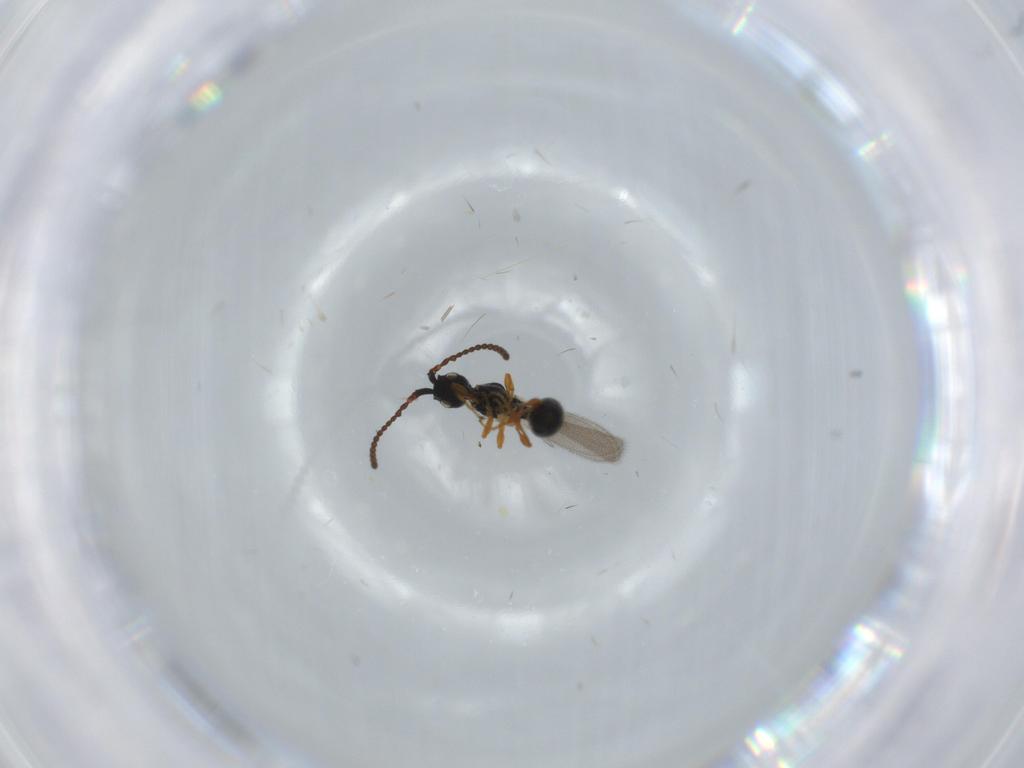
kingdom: Animalia
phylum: Arthropoda
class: Insecta
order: Hymenoptera
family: Diapriidae
